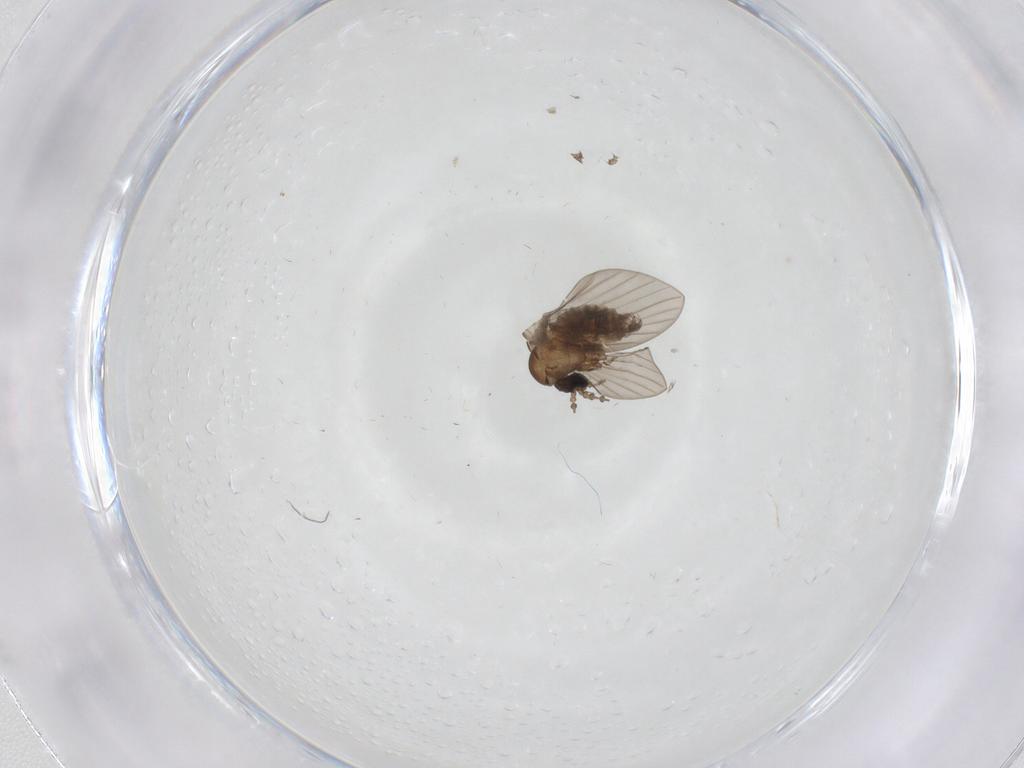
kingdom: Animalia
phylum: Arthropoda
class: Insecta
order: Diptera
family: Psychodidae
